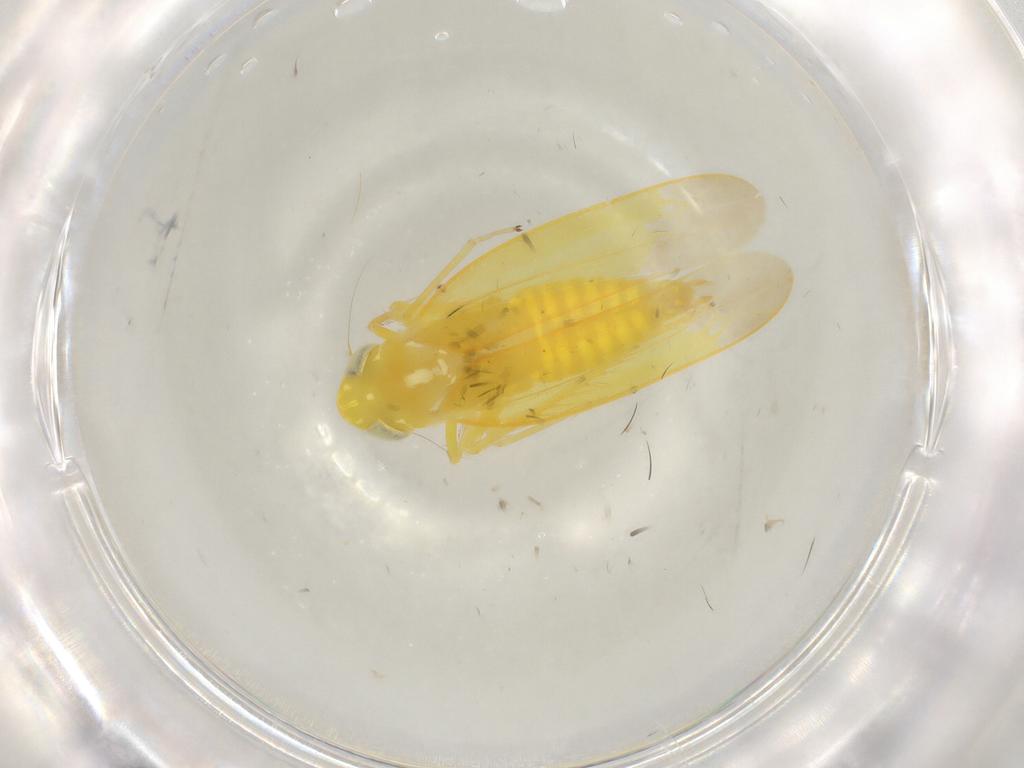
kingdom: Animalia
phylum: Arthropoda
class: Insecta
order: Hemiptera
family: Cicadellidae
